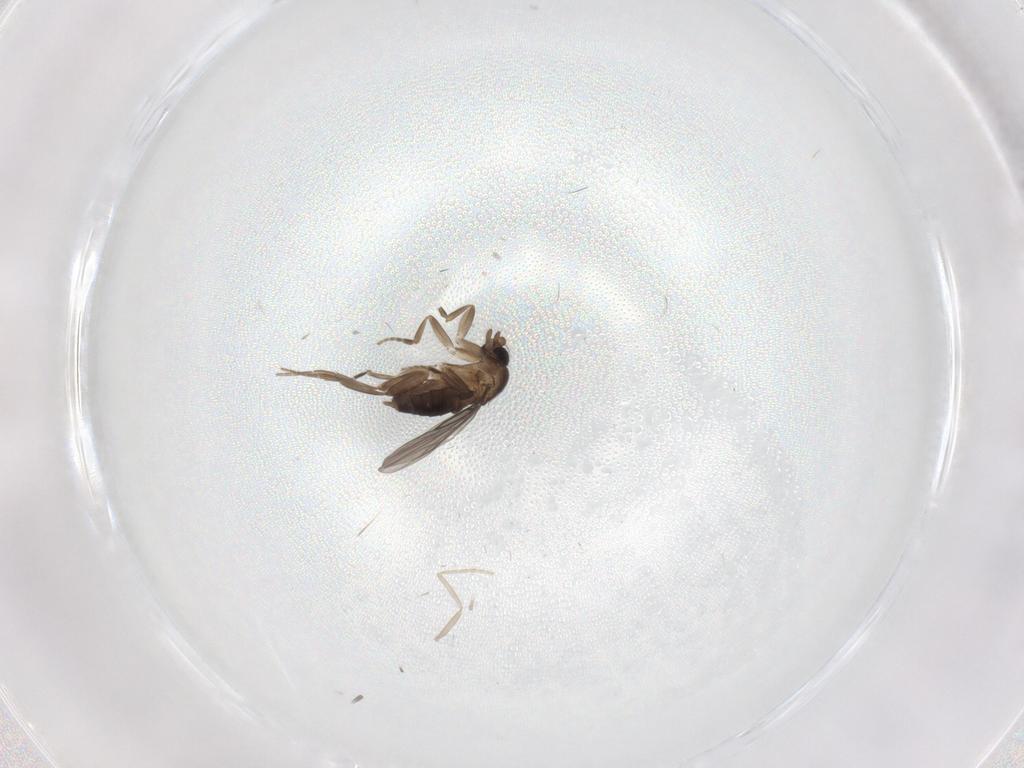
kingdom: Animalia
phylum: Arthropoda
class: Insecta
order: Diptera
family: Cecidomyiidae
